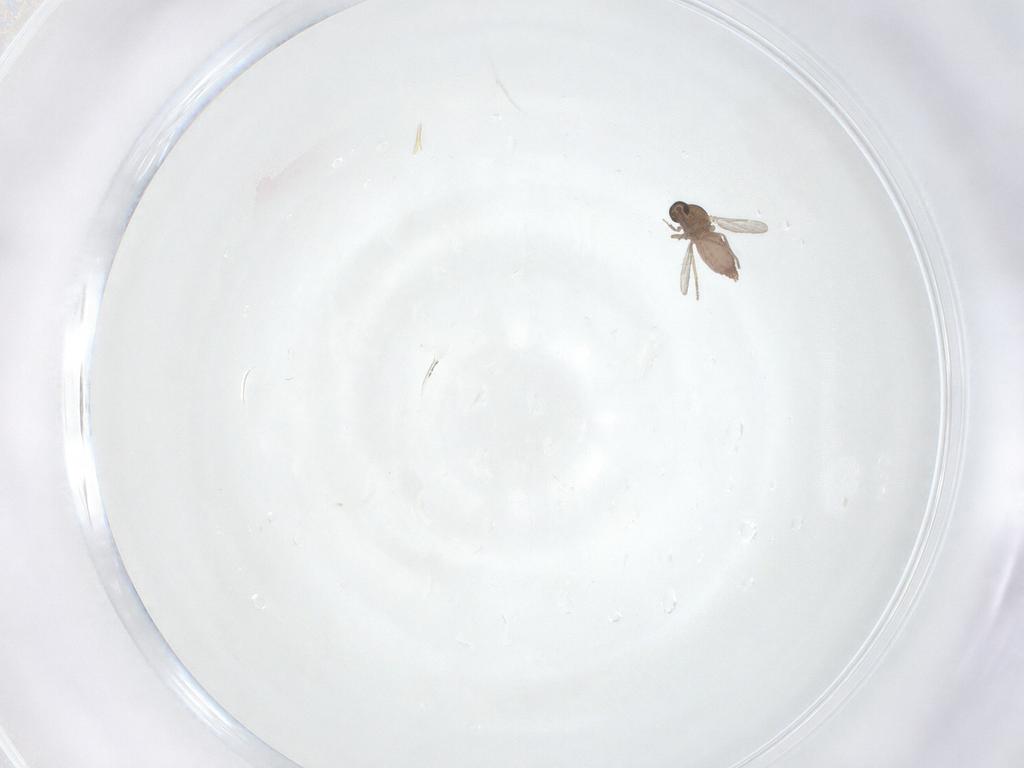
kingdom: Animalia
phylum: Arthropoda
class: Insecta
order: Diptera
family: Ceratopogonidae
